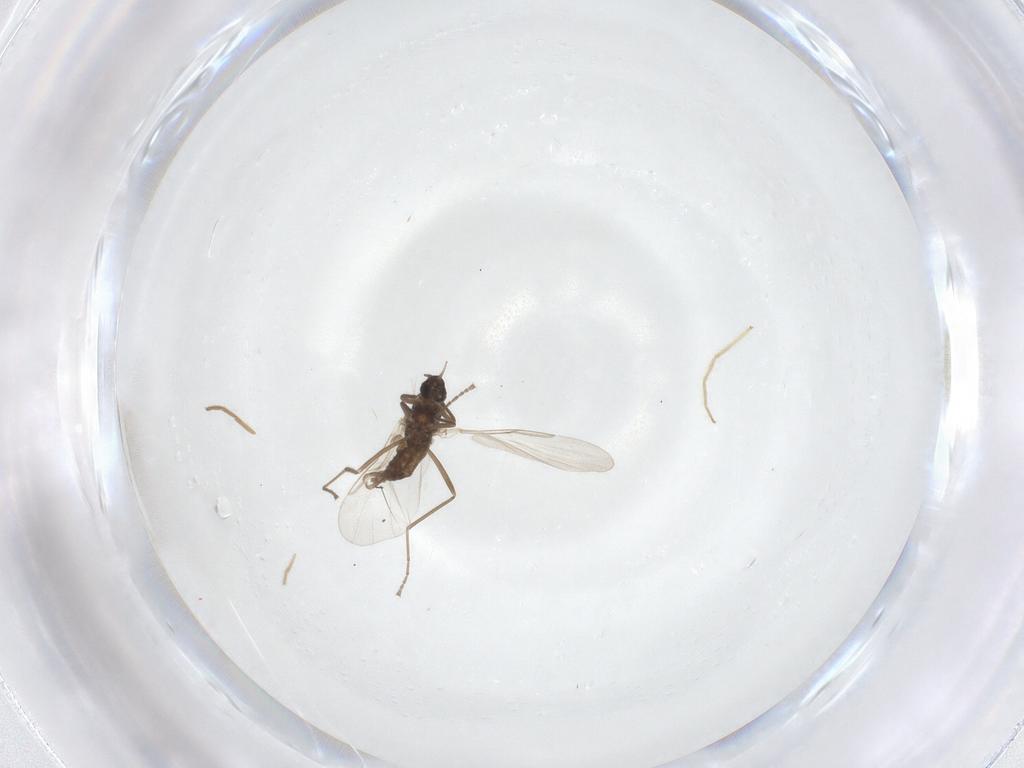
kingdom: Animalia
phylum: Arthropoda
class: Insecta
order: Diptera
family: Cecidomyiidae
